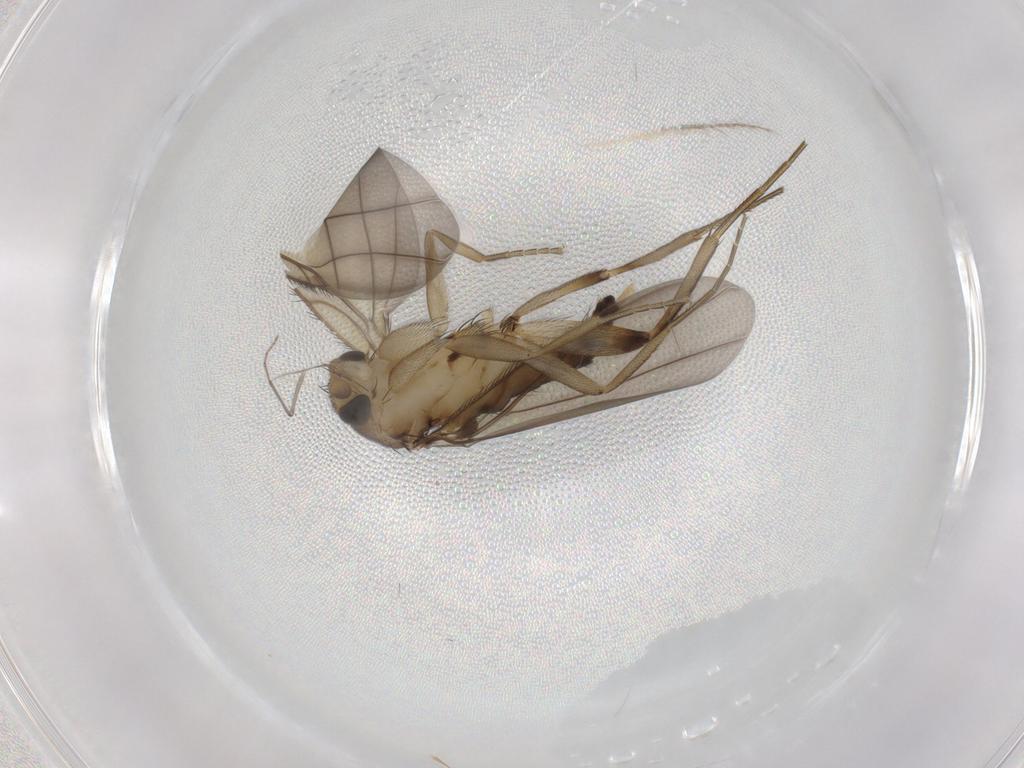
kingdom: Animalia
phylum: Arthropoda
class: Insecta
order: Diptera
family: Phoridae
